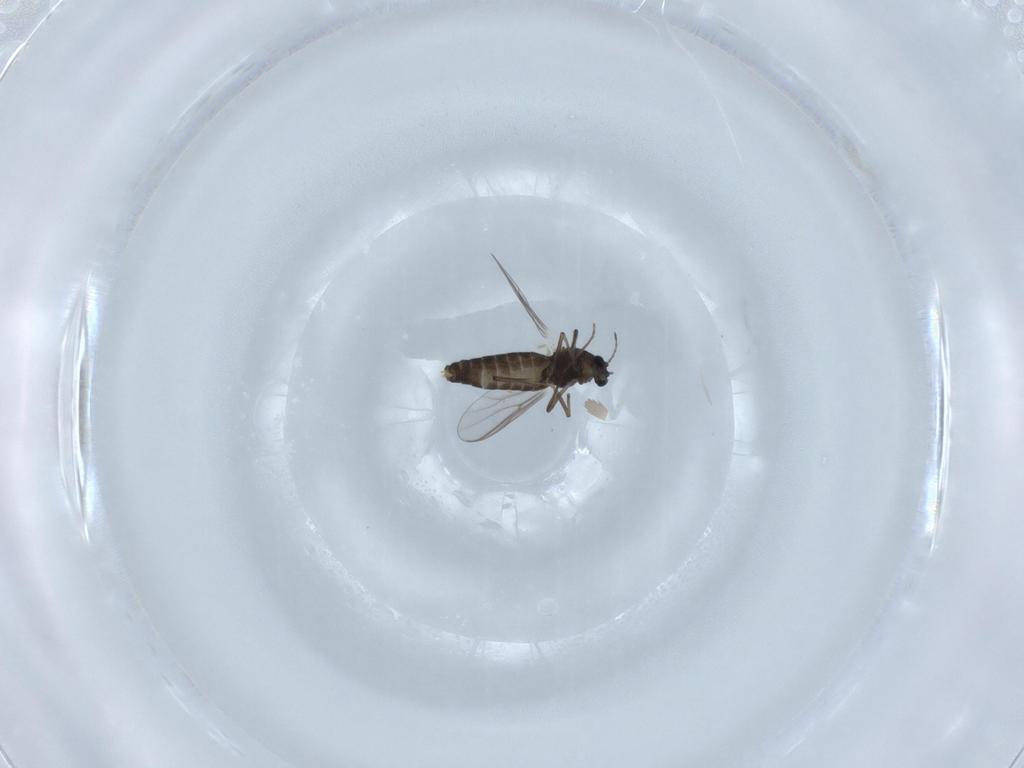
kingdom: Animalia
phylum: Arthropoda
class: Insecta
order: Diptera
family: Chironomidae
